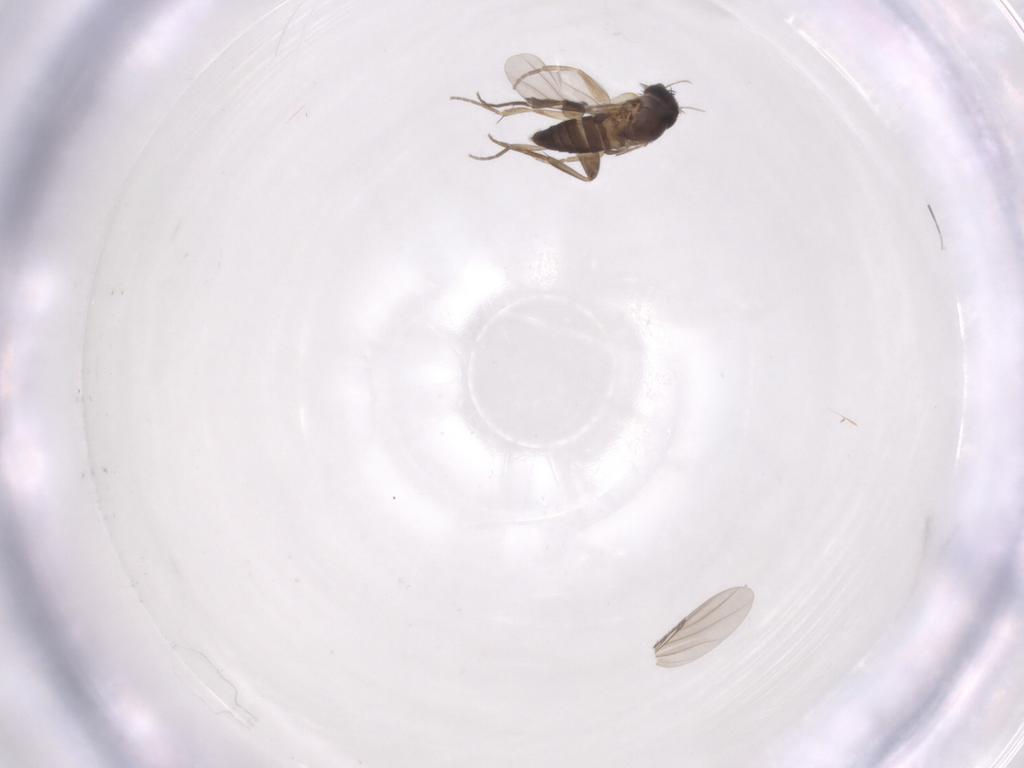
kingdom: Animalia
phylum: Arthropoda
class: Insecta
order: Diptera
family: Phoridae
